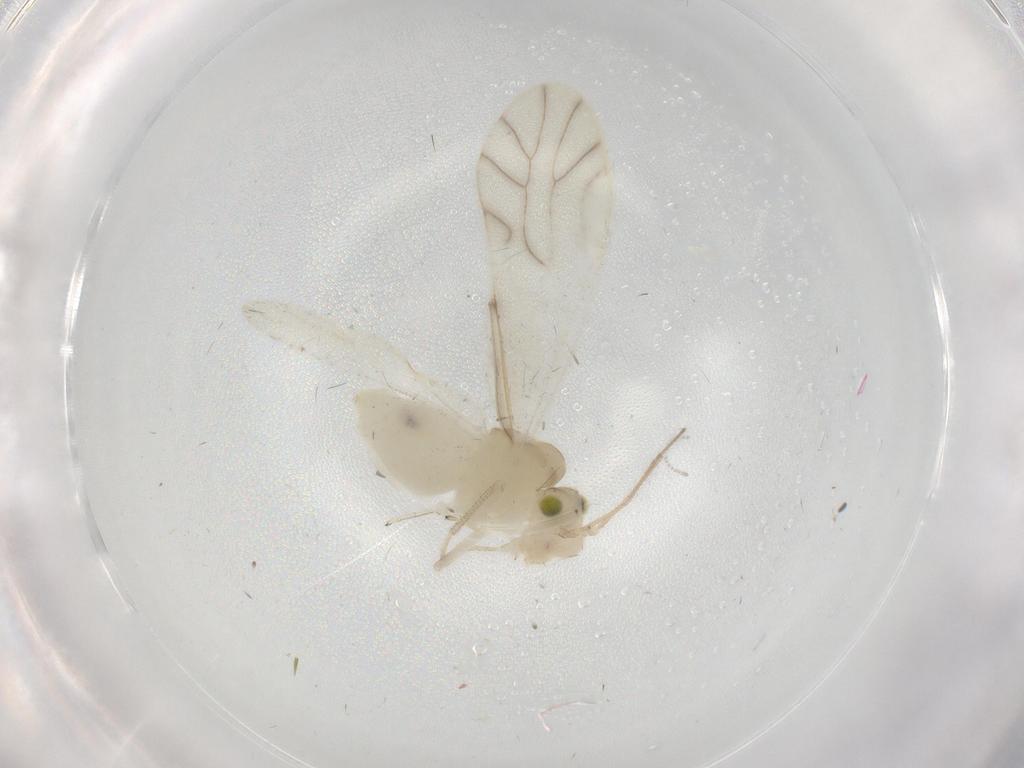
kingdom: Animalia
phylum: Arthropoda
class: Insecta
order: Psocodea
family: Caeciliusidae
